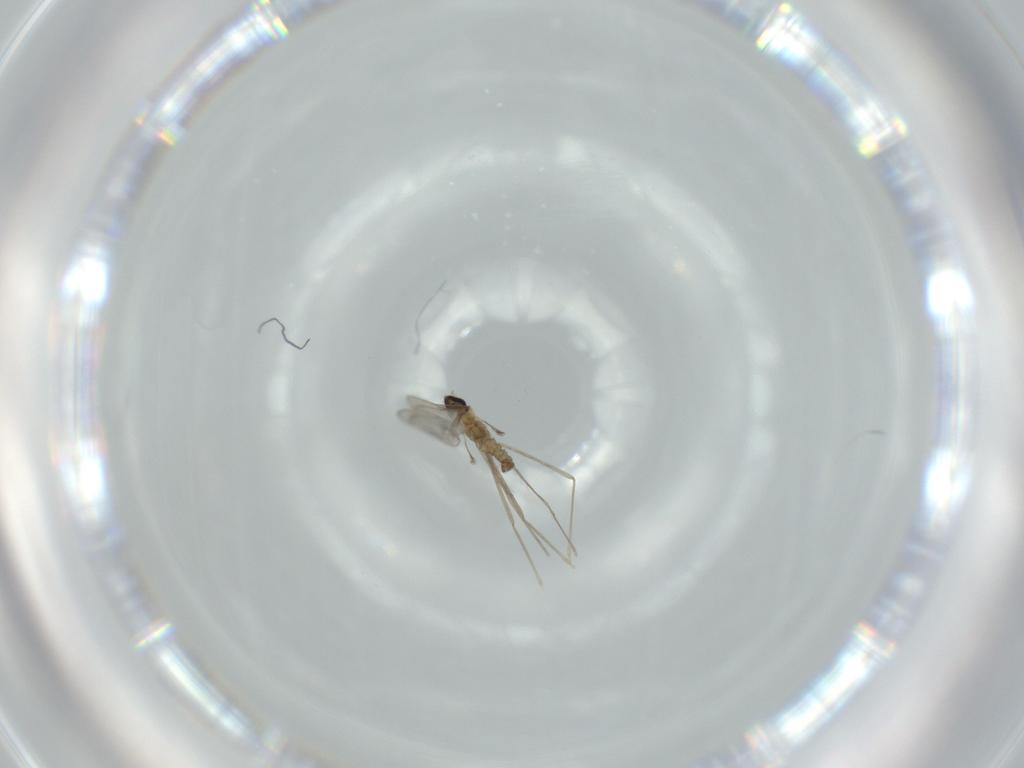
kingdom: Animalia
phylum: Arthropoda
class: Insecta
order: Diptera
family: Cecidomyiidae
